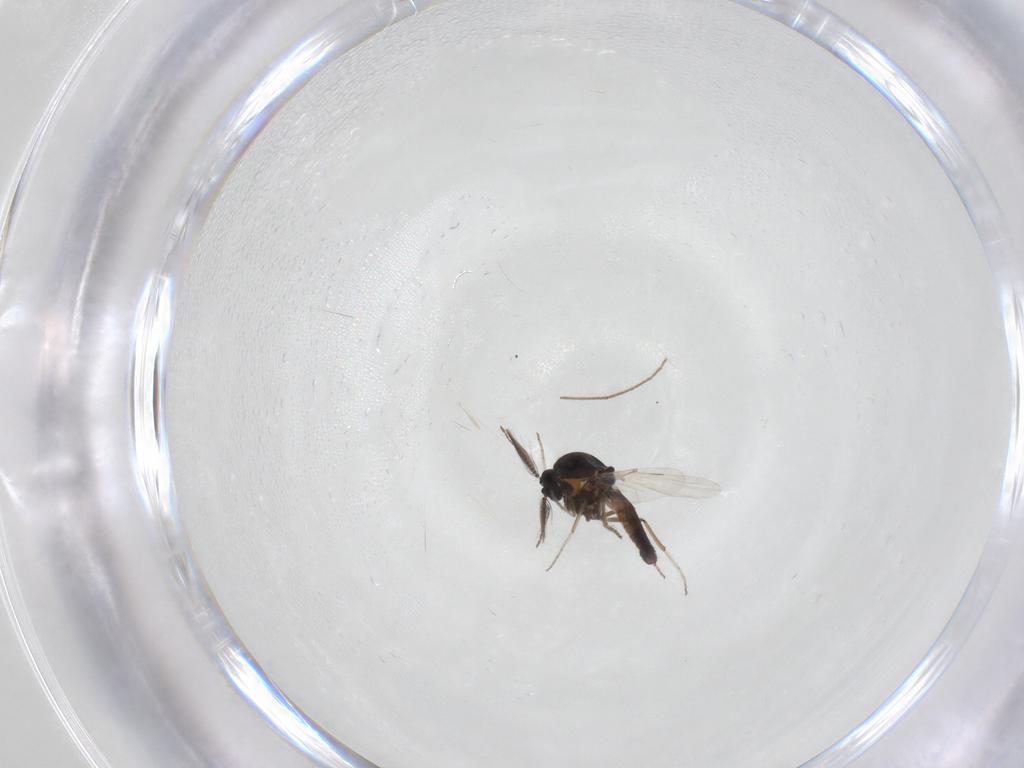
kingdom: Animalia
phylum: Arthropoda
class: Insecta
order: Diptera
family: Ceratopogonidae
